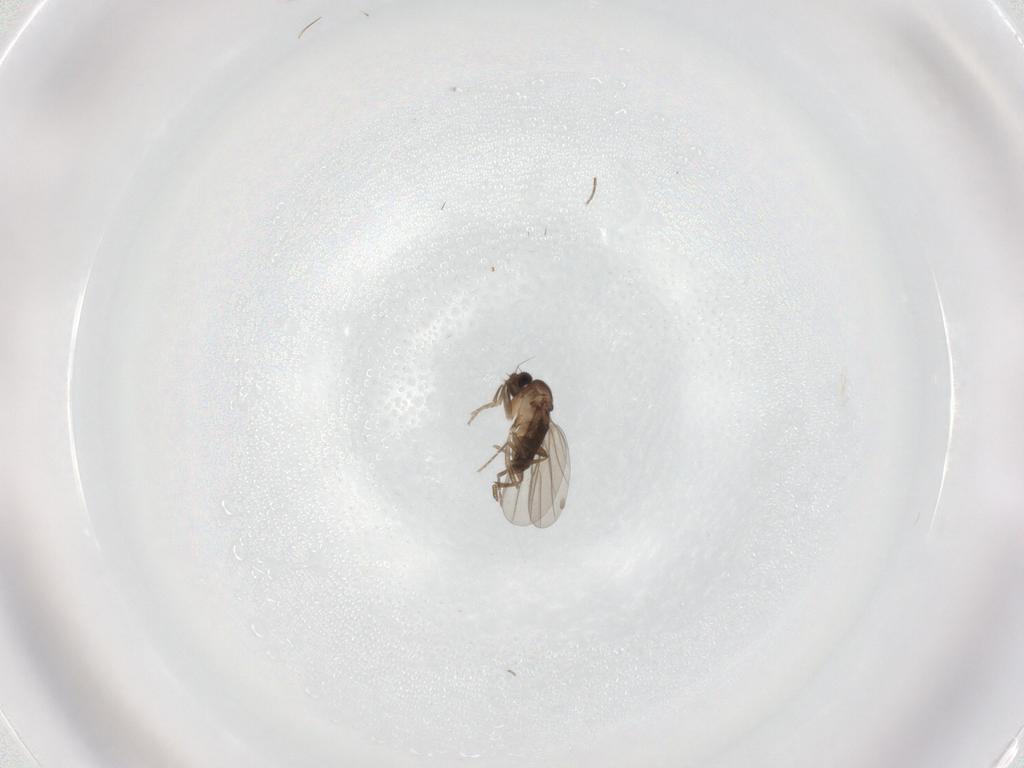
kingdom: Animalia
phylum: Arthropoda
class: Insecta
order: Diptera
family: Phoridae
